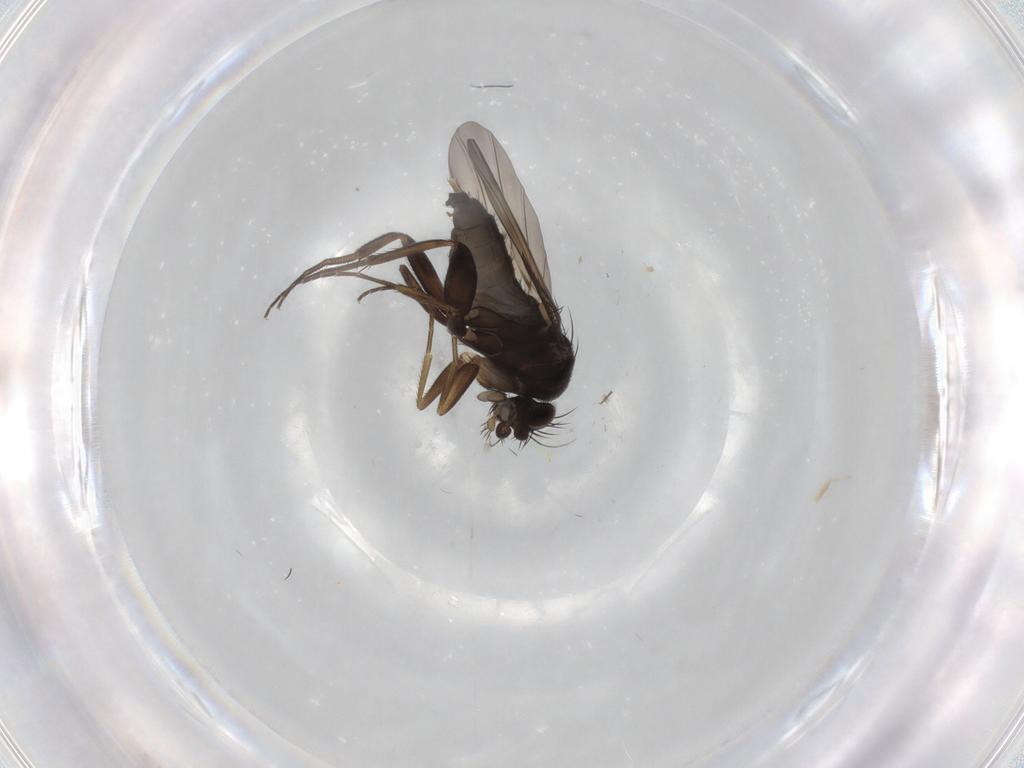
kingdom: Animalia
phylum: Arthropoda
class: Insecta
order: Diptera
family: Phoridae
